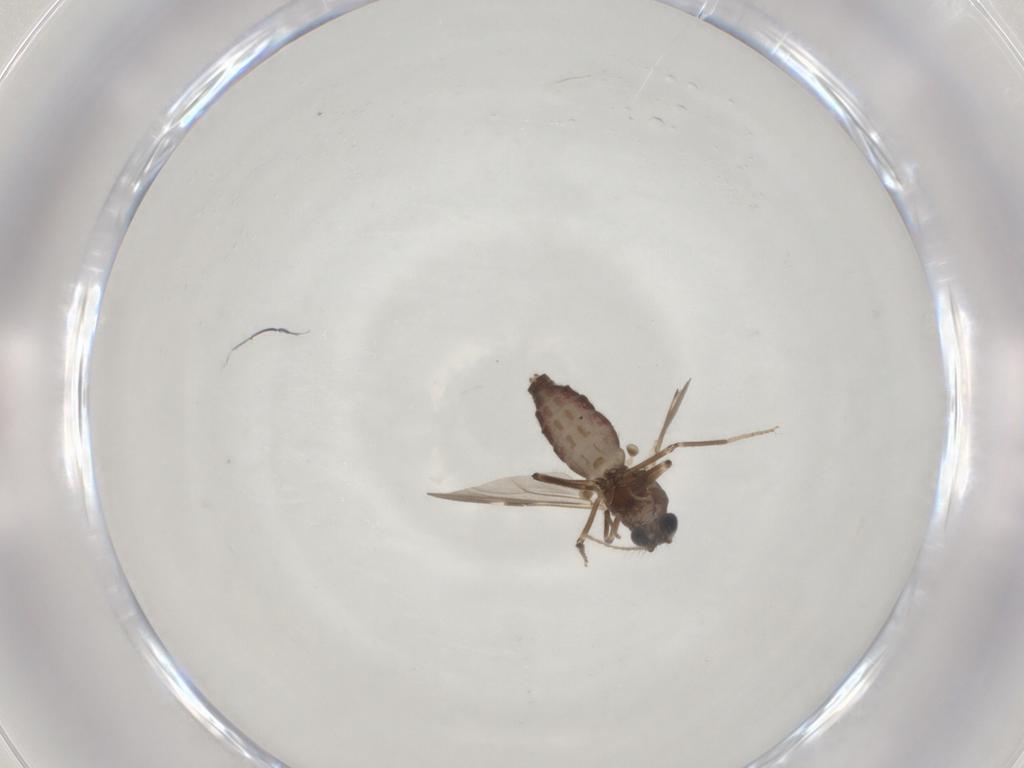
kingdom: Animalia
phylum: Arthropoda
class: Insecta
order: Diptera
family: Ceratopogonidae
